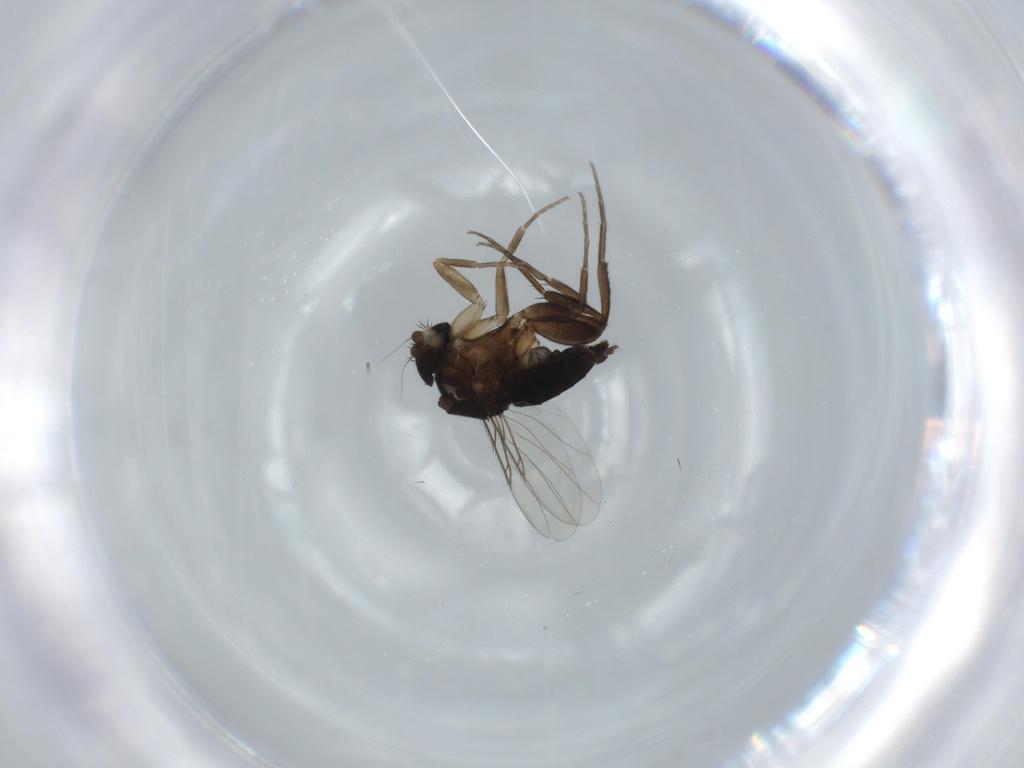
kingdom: Animalia
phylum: Arthropoda
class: Insecta
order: Diptera
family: Phoridae
